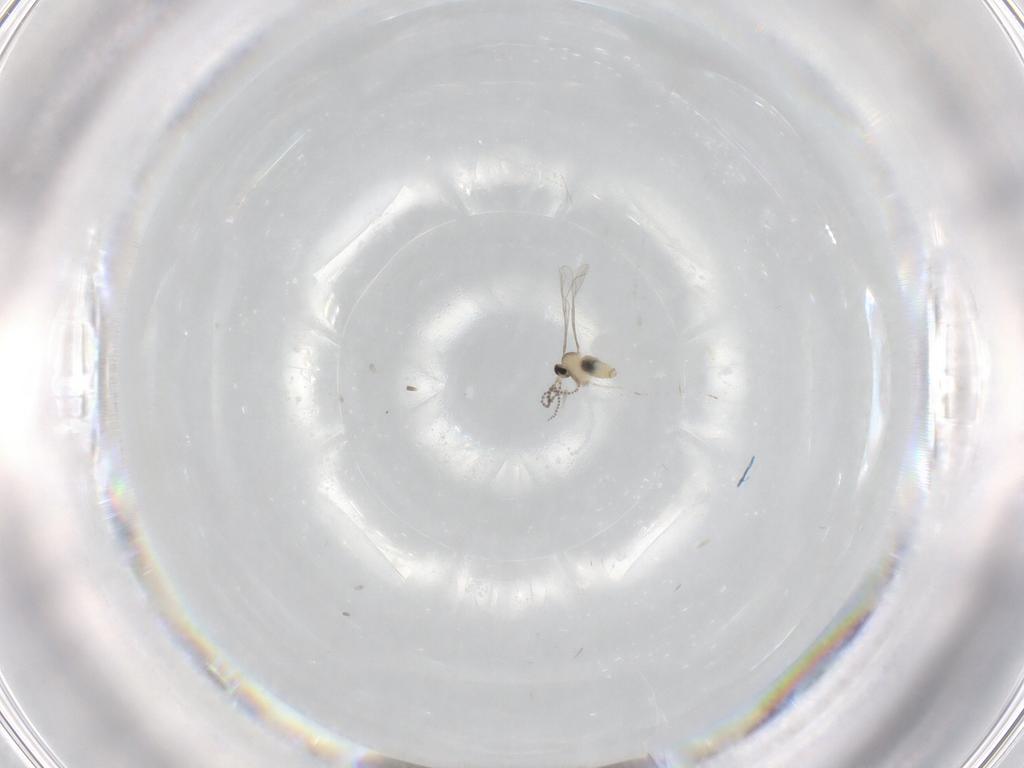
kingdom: Animalia
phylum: Arthropoda
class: Insecta
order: Diptera
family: Cecidomyiidae
